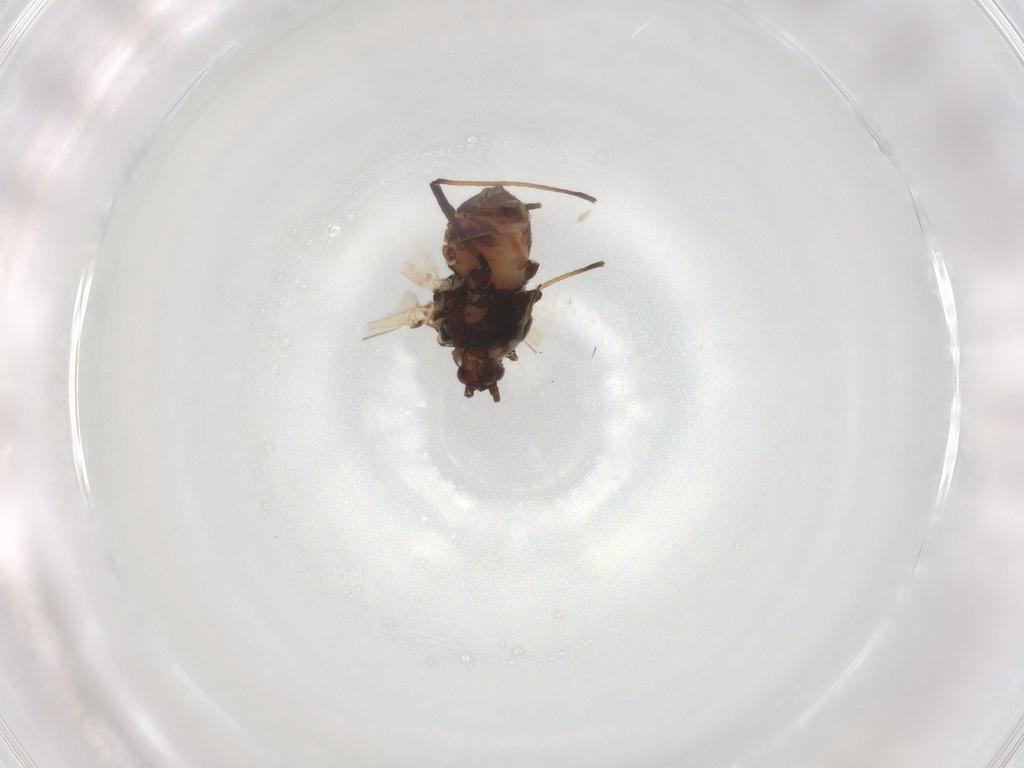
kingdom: Animalia
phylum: Arthropoda
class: Insecta
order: Hemiptera
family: Aphididae
